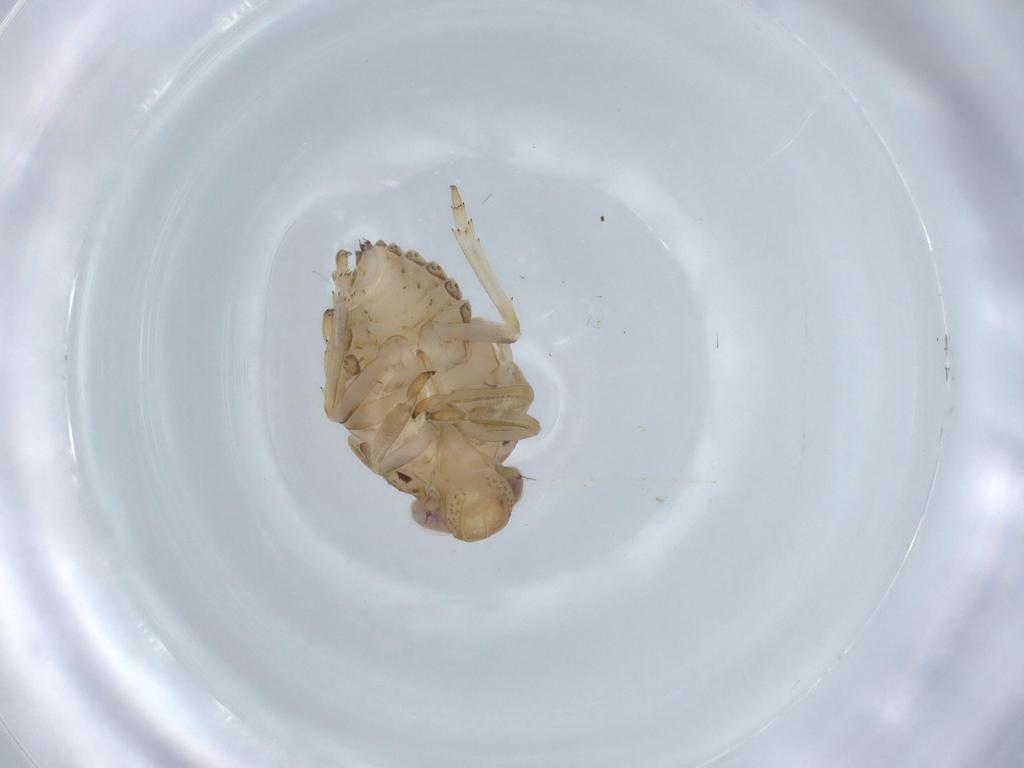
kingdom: Animalia
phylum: Arthropoda
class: Insecta
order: Hemiptera
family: Issidae
